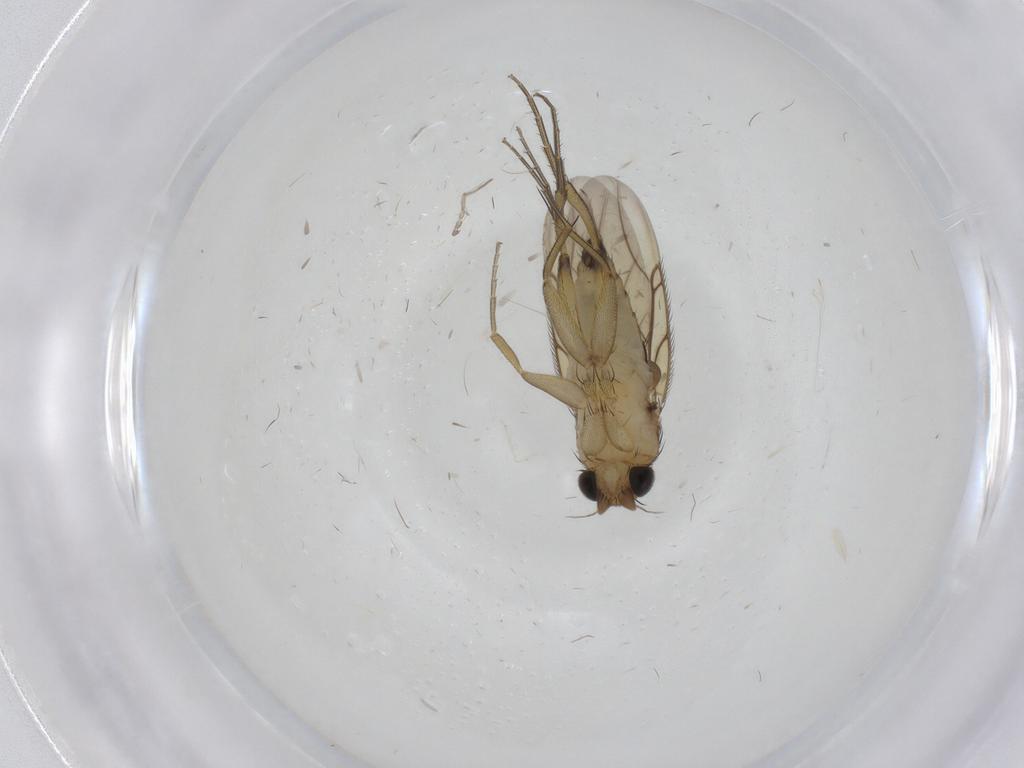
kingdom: Animalia
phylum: Arthropoda
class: Insecta
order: Diptera
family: Phoridae
